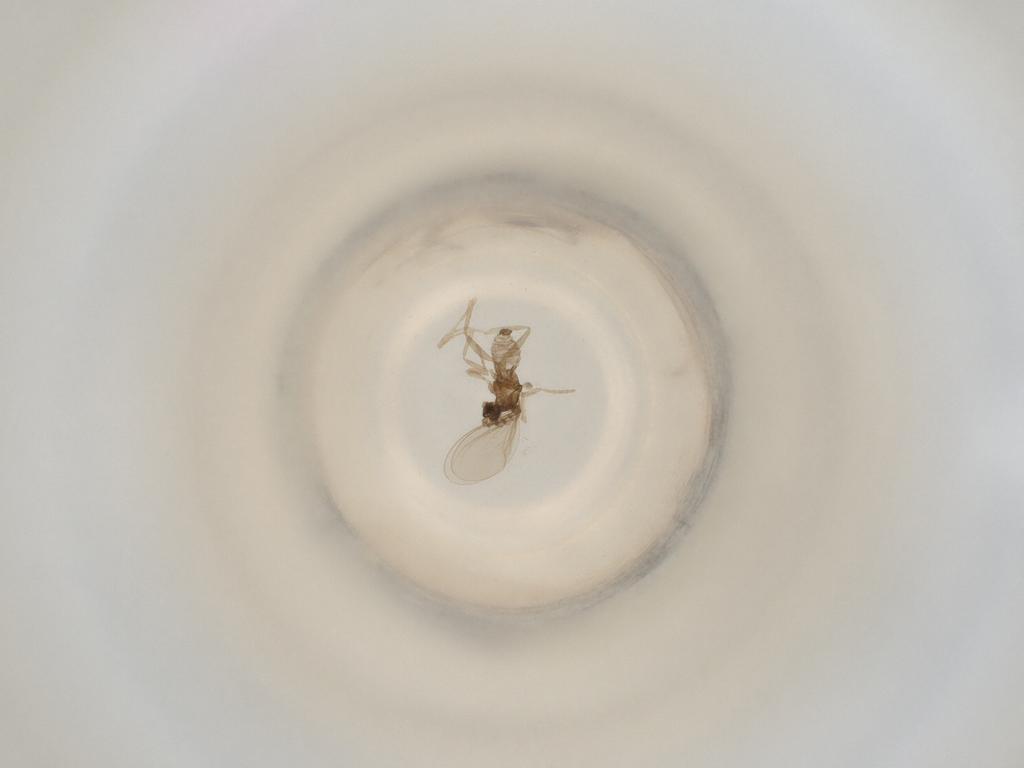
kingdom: Animalia
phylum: Arthropoda
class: Insecta
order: Diptera
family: Cecidomyiidae
